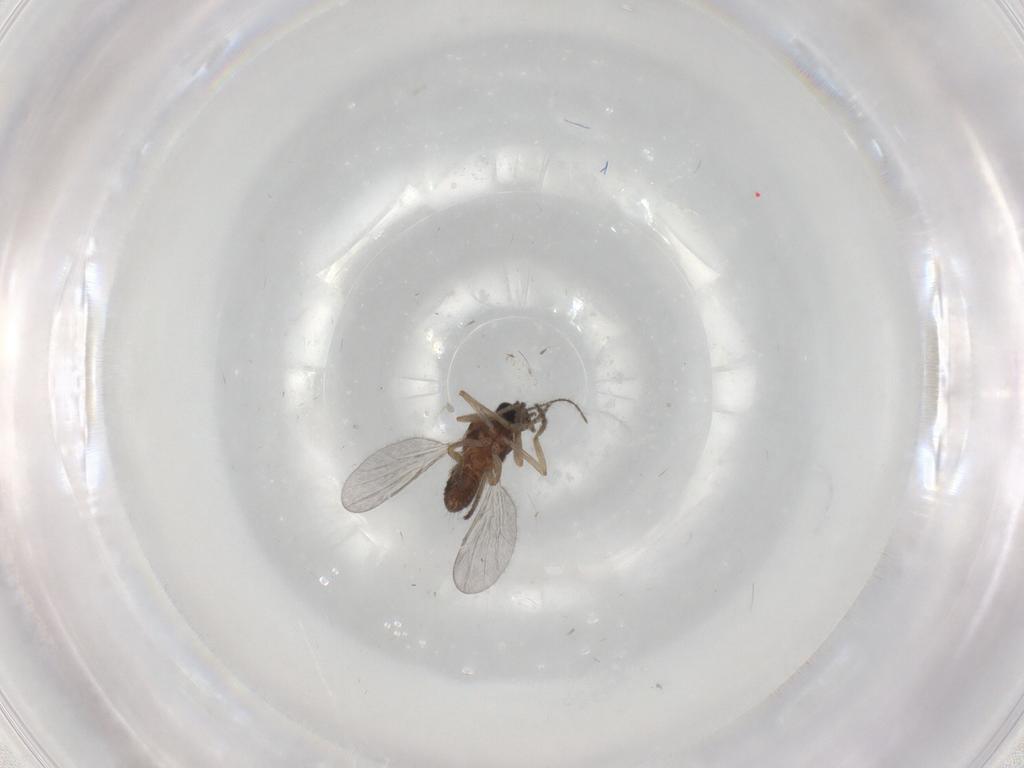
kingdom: Animalia
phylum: Arthropoda
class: Insecta
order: Diptera
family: Ceratopogonidae
